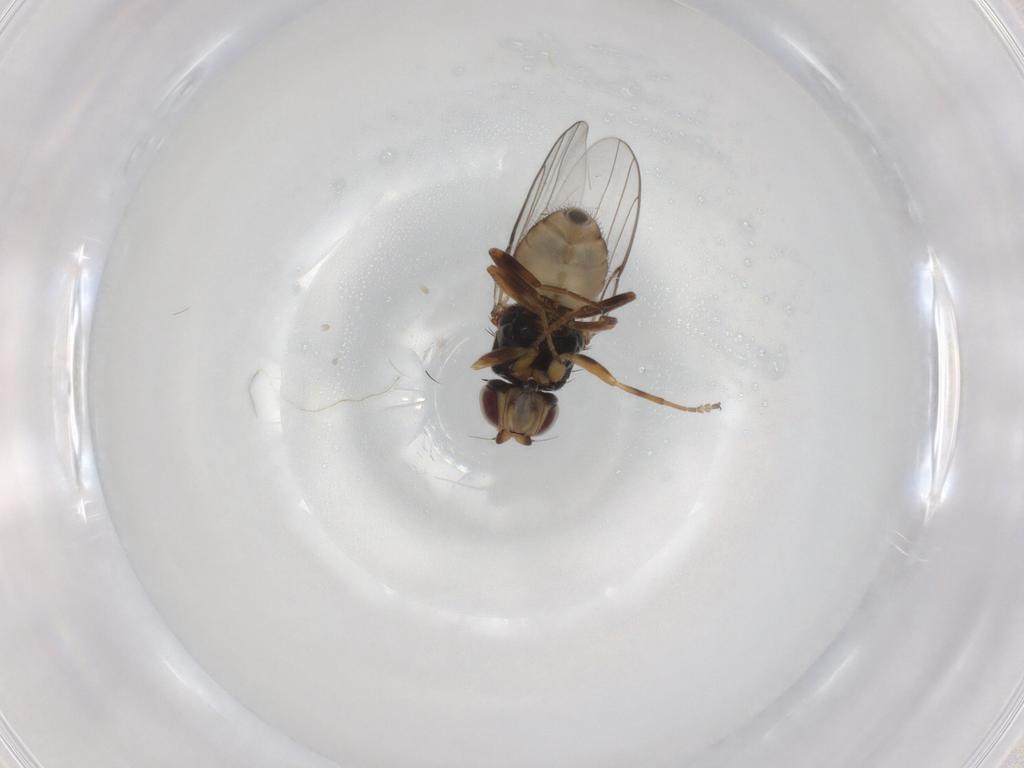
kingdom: Animalia
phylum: Arthropoda
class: Insecta
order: Diptera
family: Chloropidae
